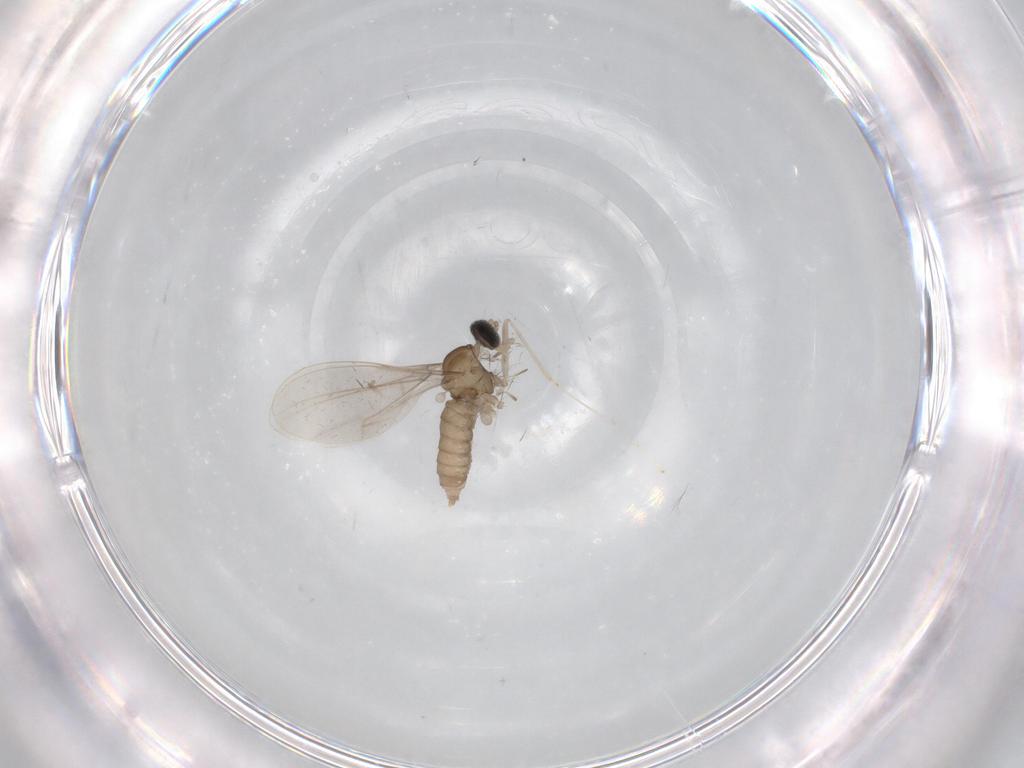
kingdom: Animalia
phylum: Arthropoda
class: Insecta
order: Diptera
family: Cecidomyiidae
